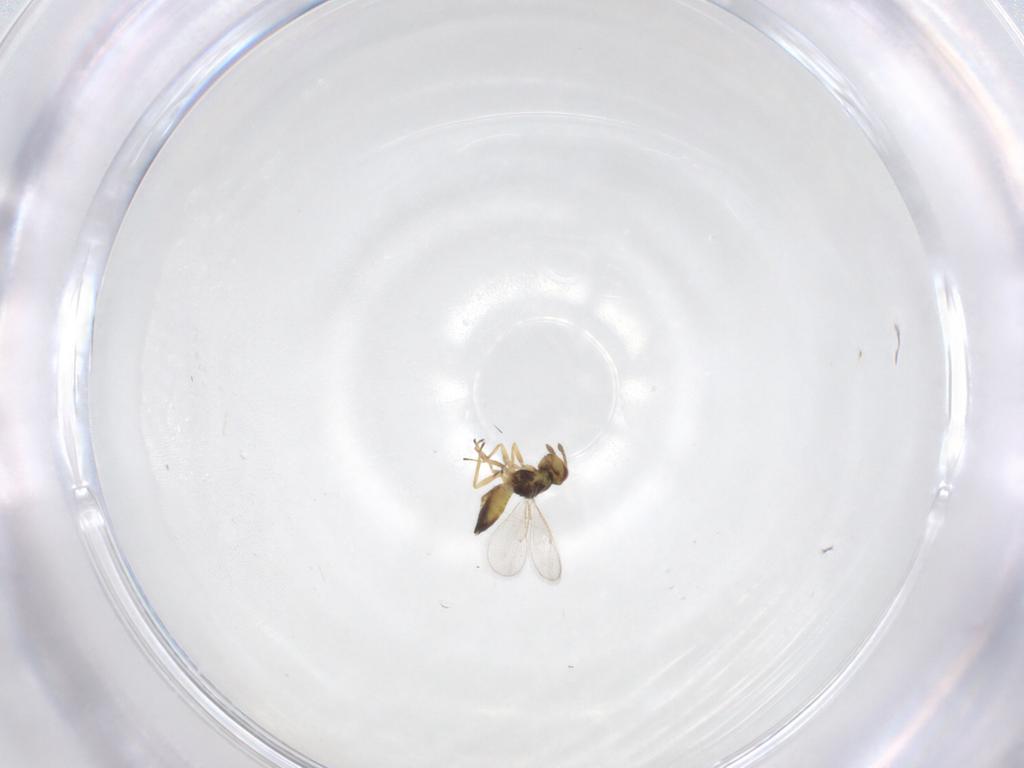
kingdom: Animalia
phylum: Arthropoda
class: Insecta
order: Hymenoptera
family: Eulophidae
